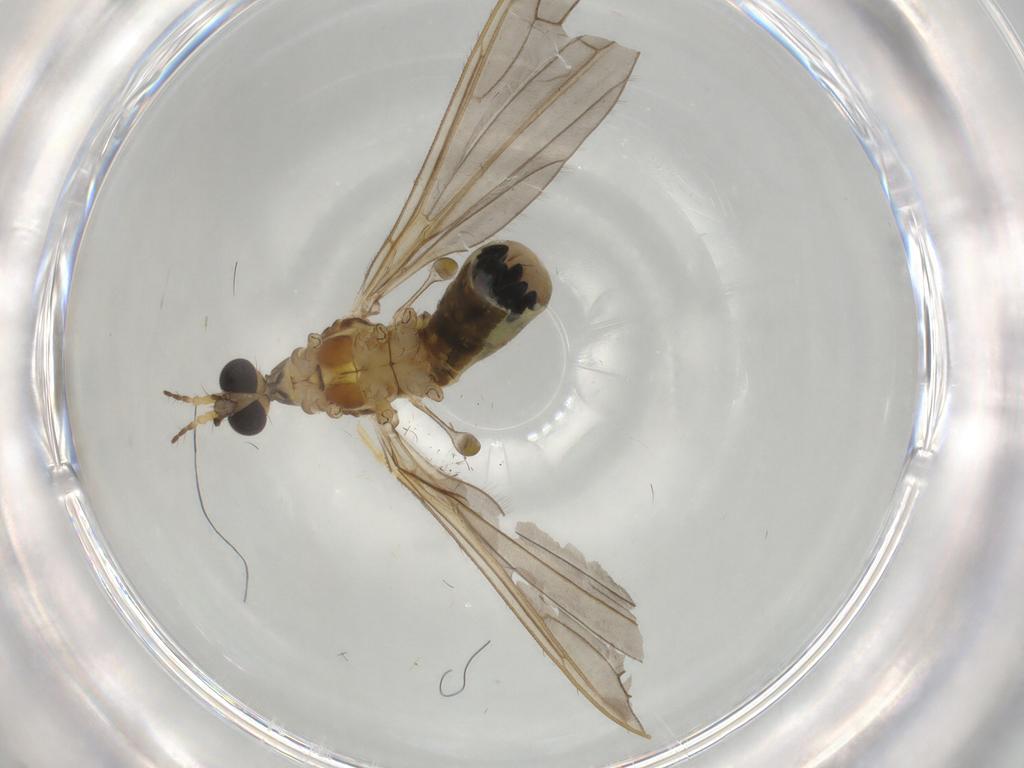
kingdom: Animalia
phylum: Arthropoda
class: Insecta
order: Diptera
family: Limoniidae
